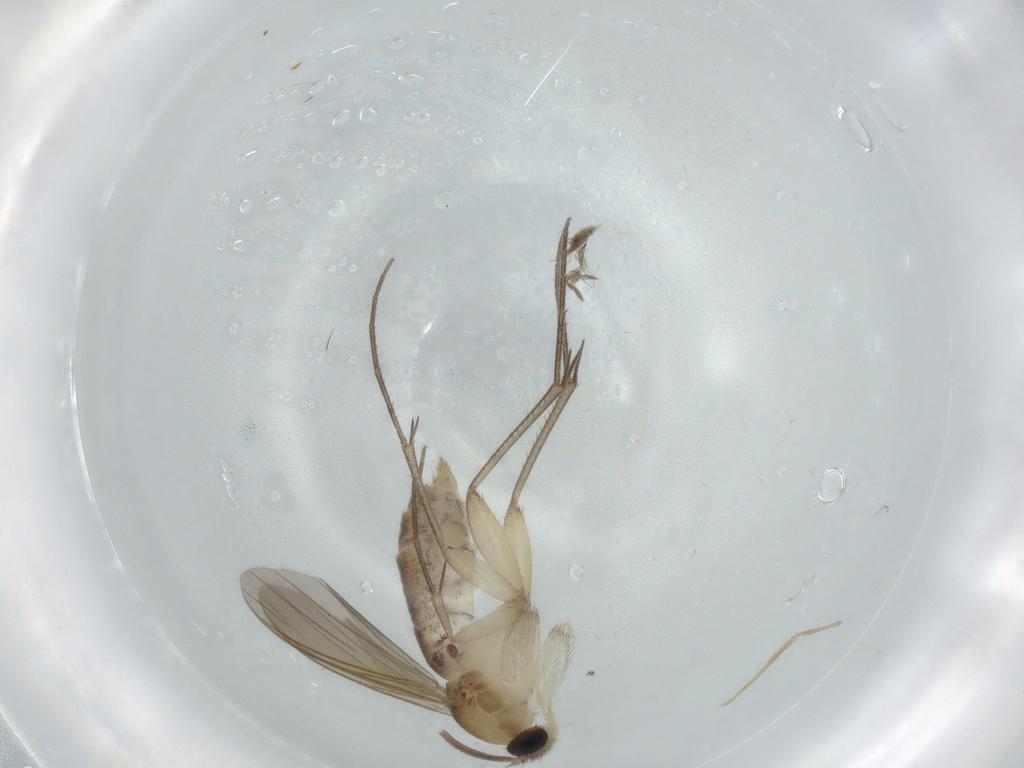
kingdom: Animalia
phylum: Arthropoda
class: Insecta
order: Diptera
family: Mycetophilidae
